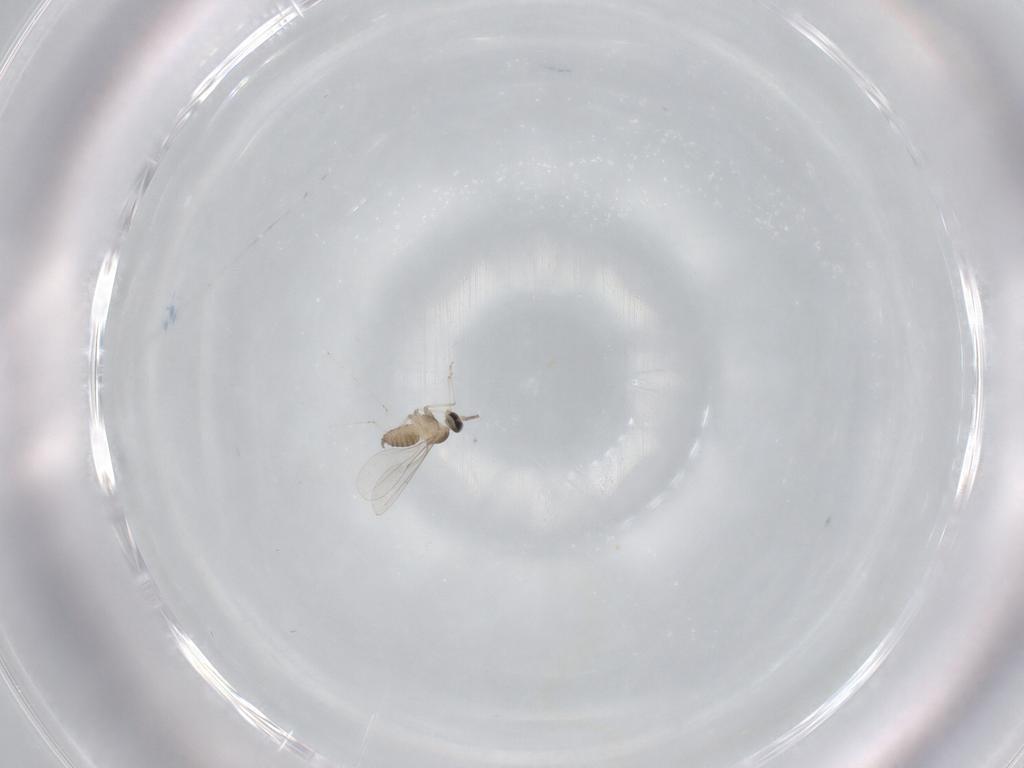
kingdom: Animalia
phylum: Arthropoda
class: Insecta
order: Diptera
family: Cecidomyiidae
